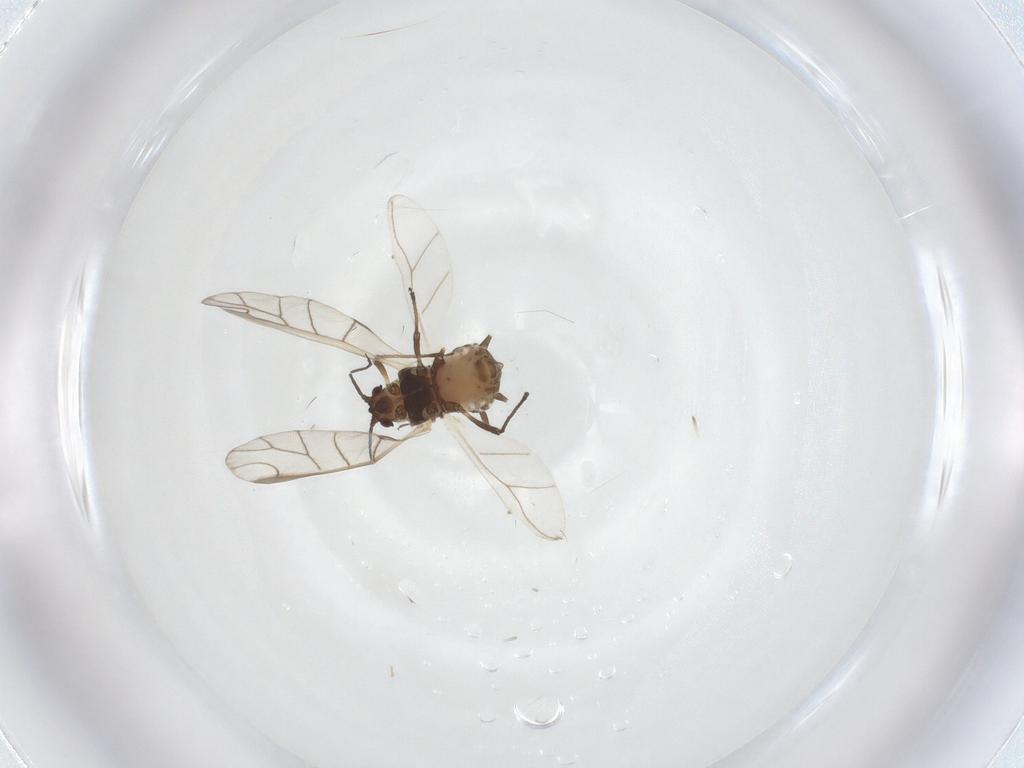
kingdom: Animalia
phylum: Arthropoda
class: Insecta
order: Hemiptera
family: Aphididae
